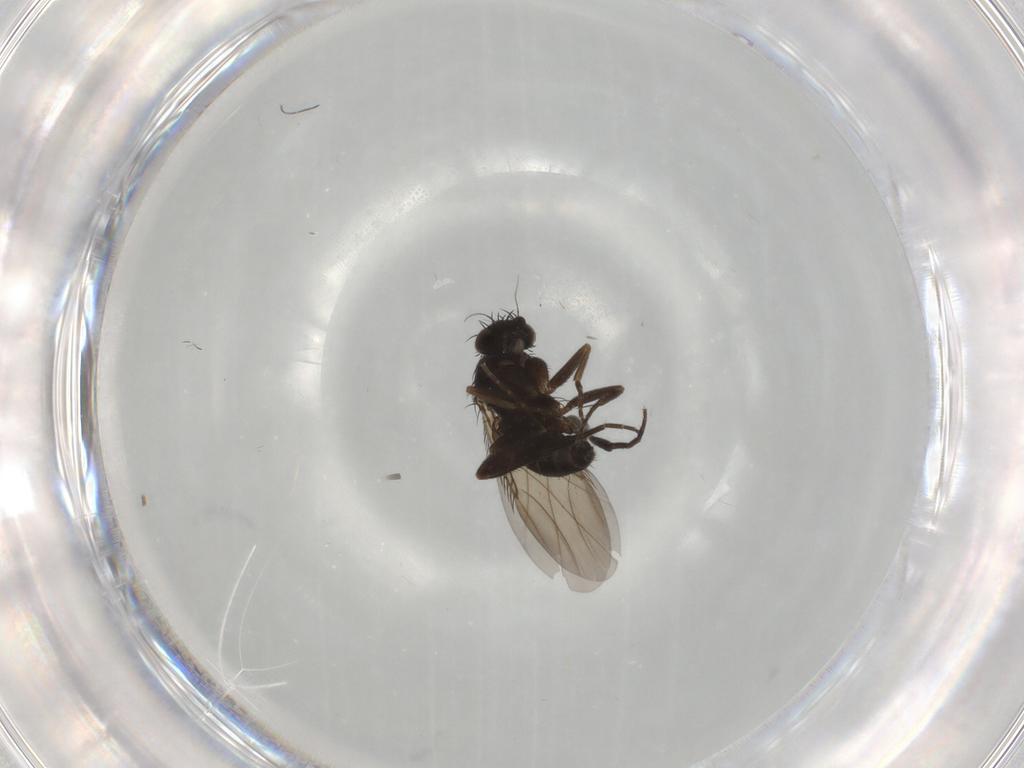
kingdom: Animalia
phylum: Arthropoda
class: Insecta
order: Diptera
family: Phoridae
